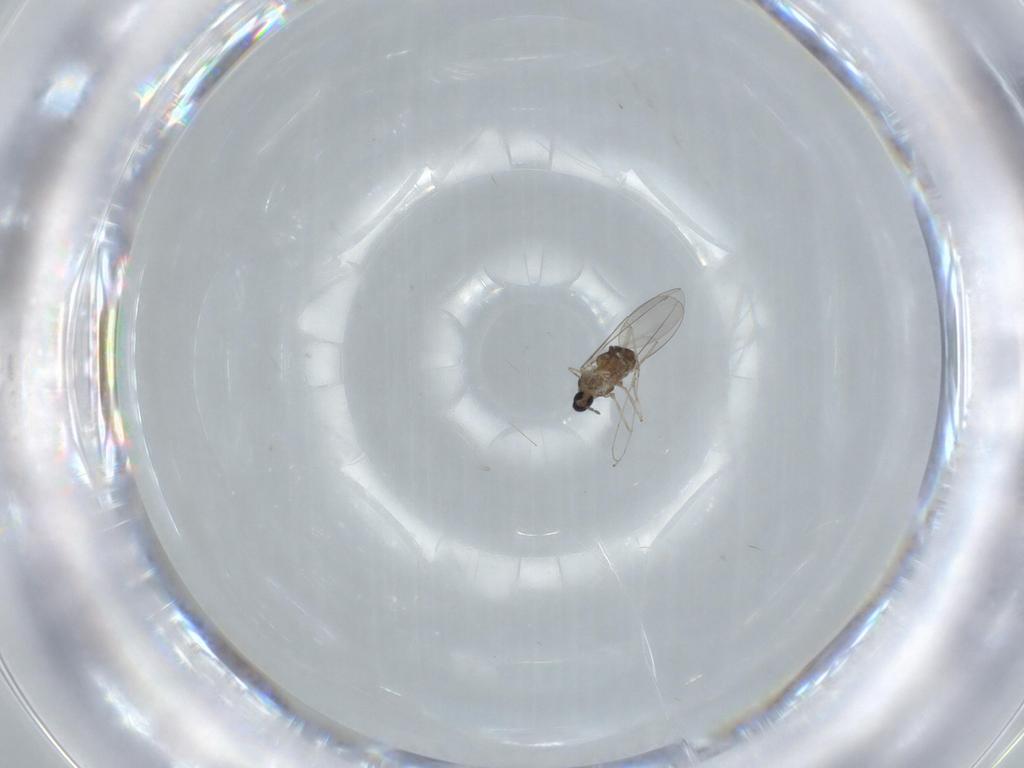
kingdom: Animalia
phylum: Arthropoda
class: Insecta
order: Diptera
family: Cecidomyiidae
